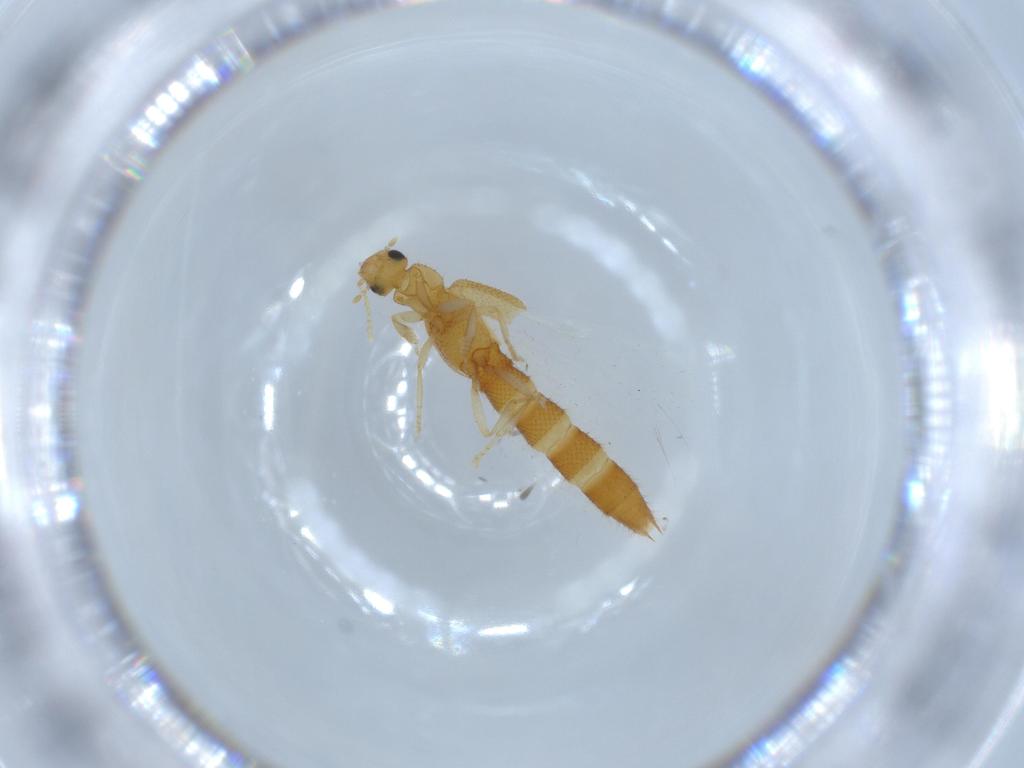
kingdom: Animalia
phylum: Arthropoda
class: Insecta
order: Coleoptera
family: Staphylinidae
